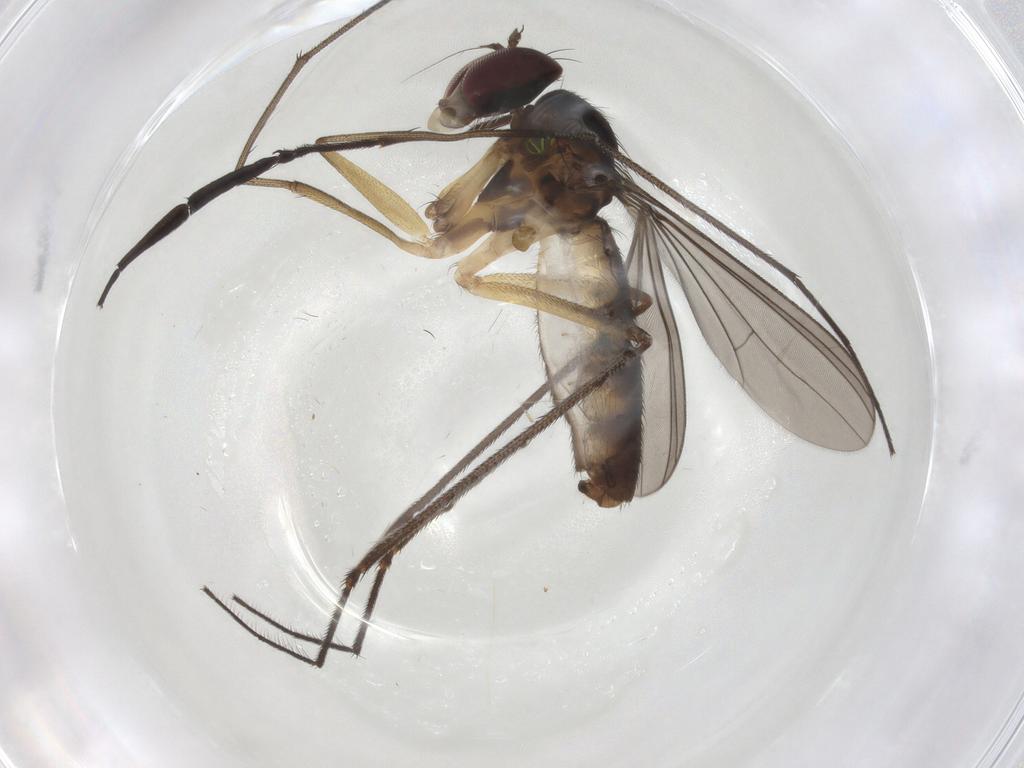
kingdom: Animalia
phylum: Arthropoda
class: Insecta
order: Diptera
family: Dolichopodidae
